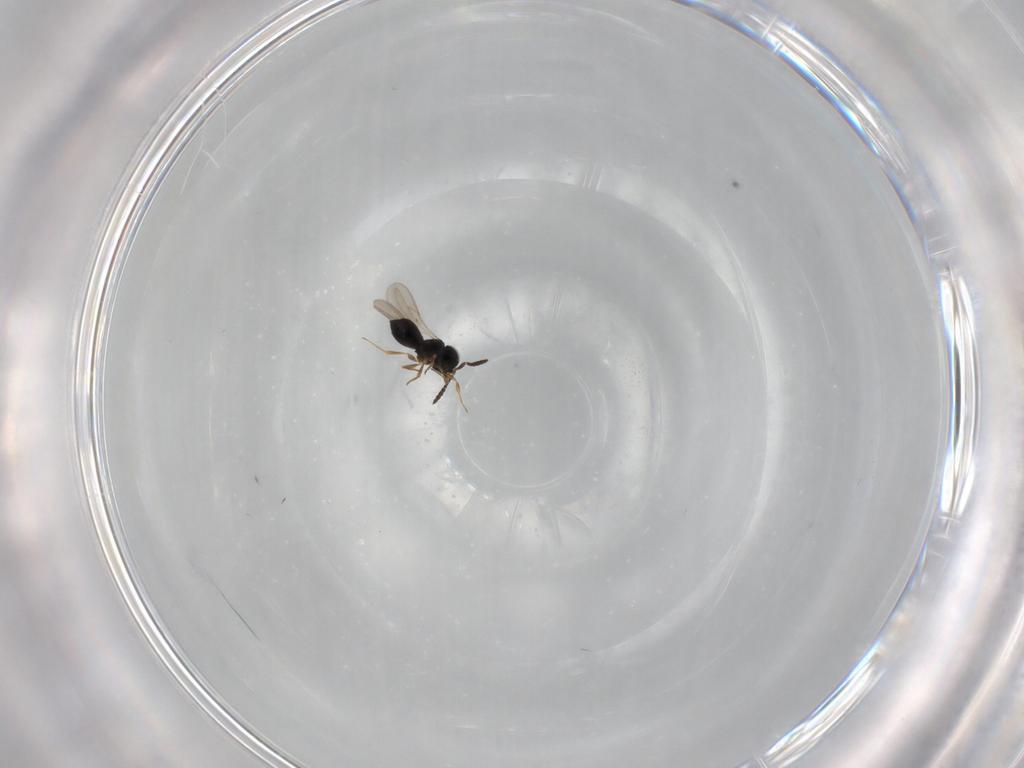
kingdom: Animalia
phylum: Arthropoda
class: Insecta
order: Hymenoptera
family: Scelionidae
